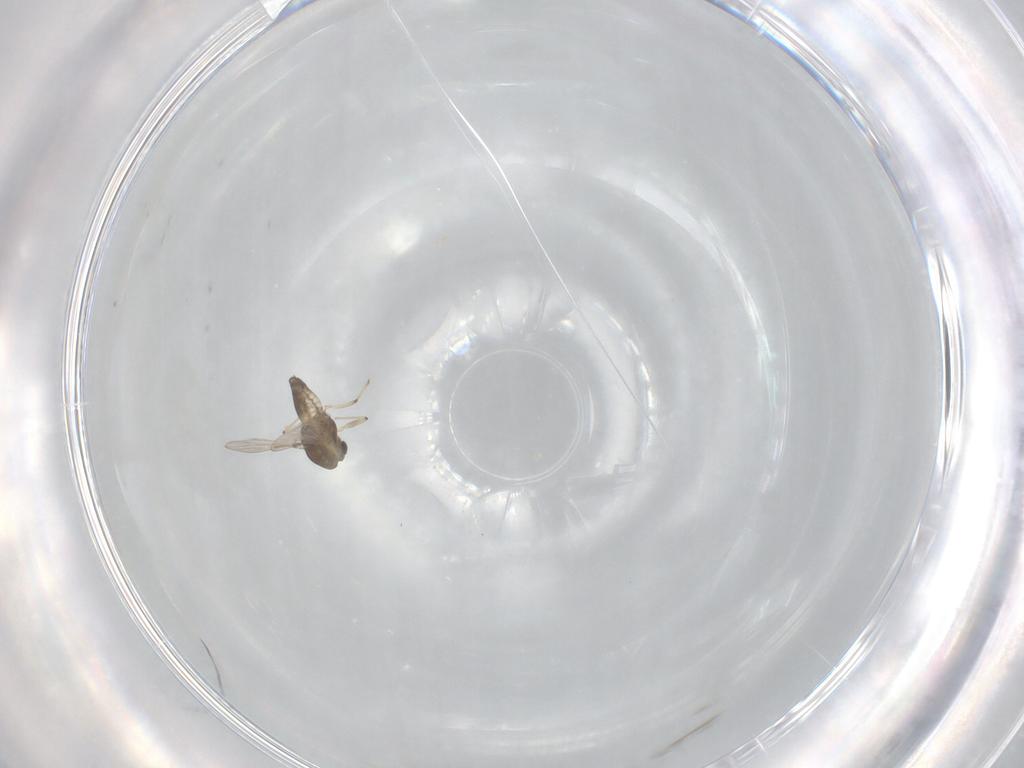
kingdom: Animalia
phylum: Arthropoda
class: Insecta
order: Diptera
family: Chironomidae
